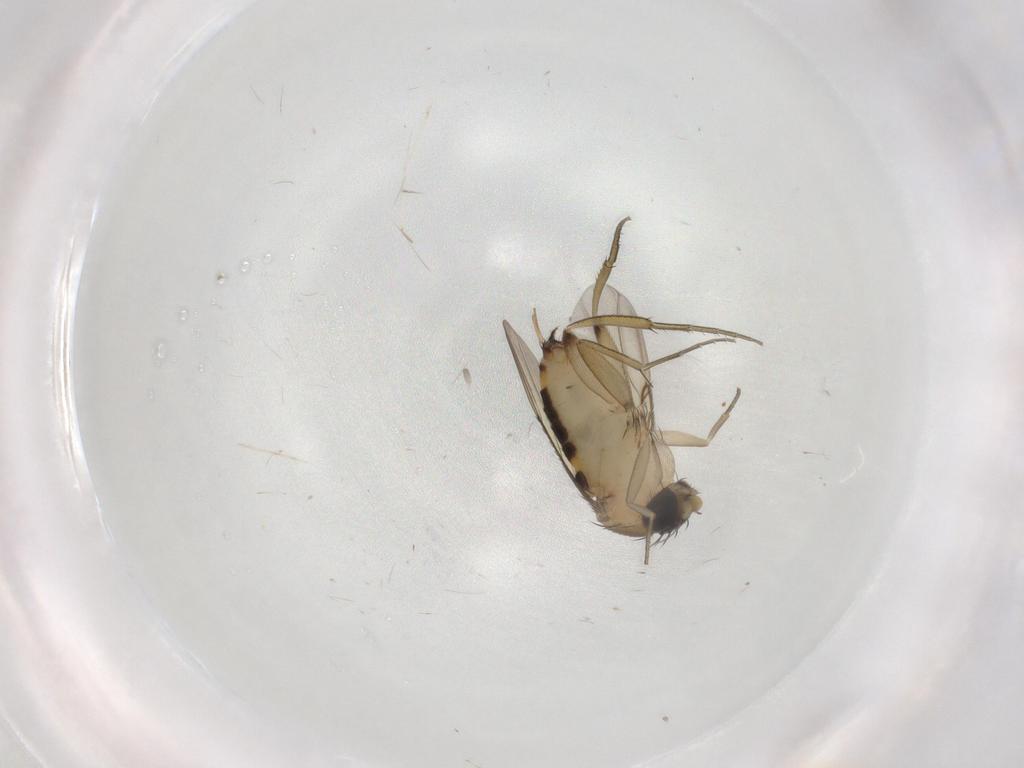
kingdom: Animalia
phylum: Arthropoda
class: Insecta
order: Diptera
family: Phoridae
